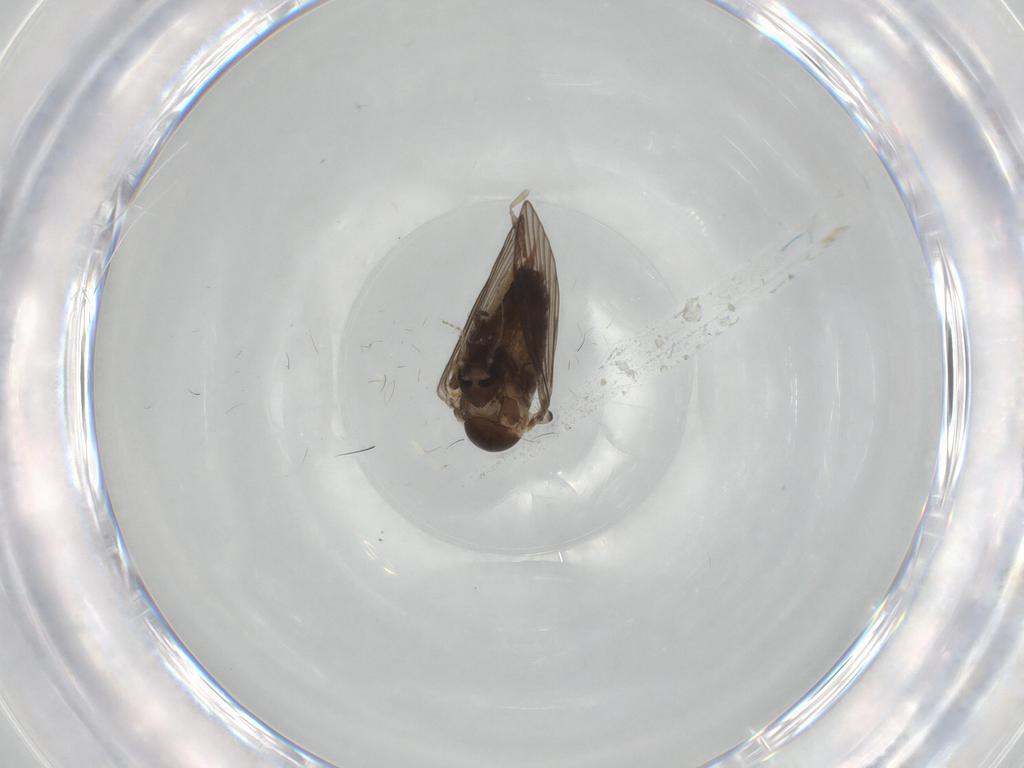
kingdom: Animalia
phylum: Arthropoda
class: Insecta
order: Diptera
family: Psychodidae
